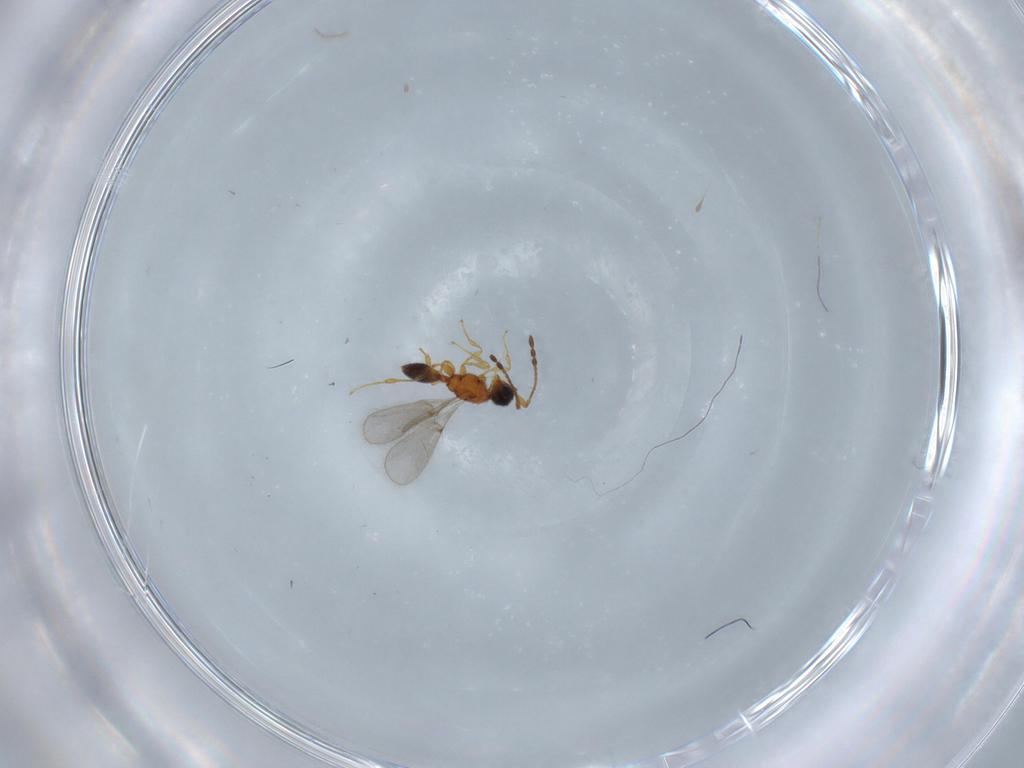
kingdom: Animalia
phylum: Arthropoda
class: Insecta
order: Hymenoptera
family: Diapriidae
